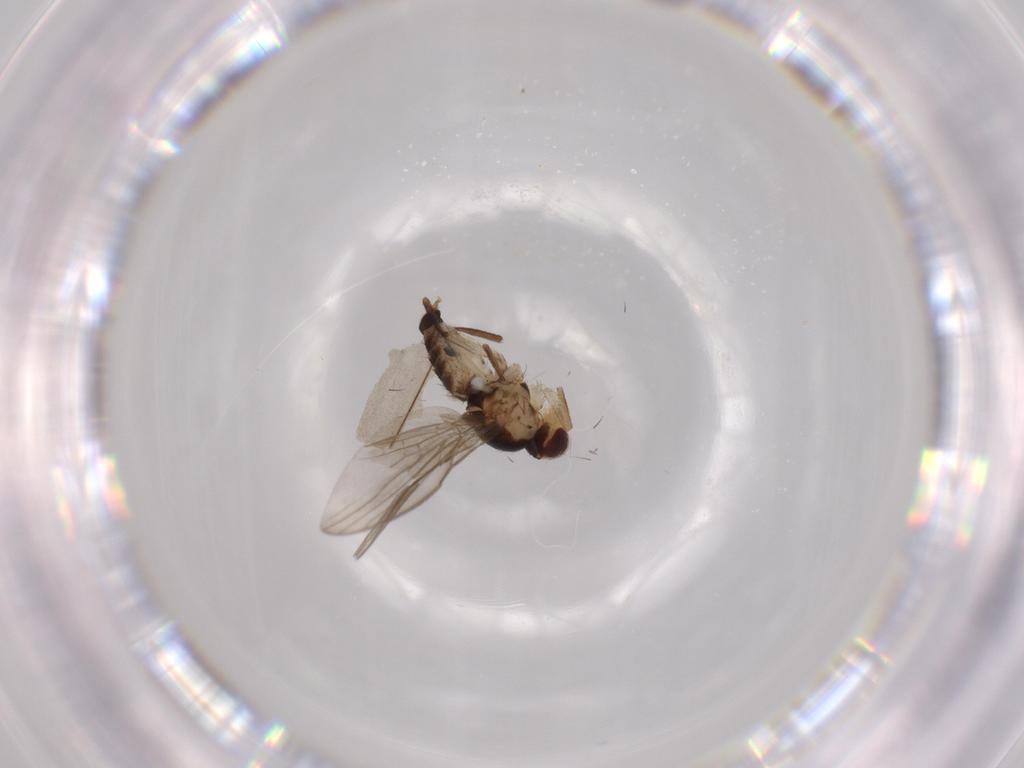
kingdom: Animalia
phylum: Arthropoda
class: Insecta
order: Diptera
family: Agromyzidae
